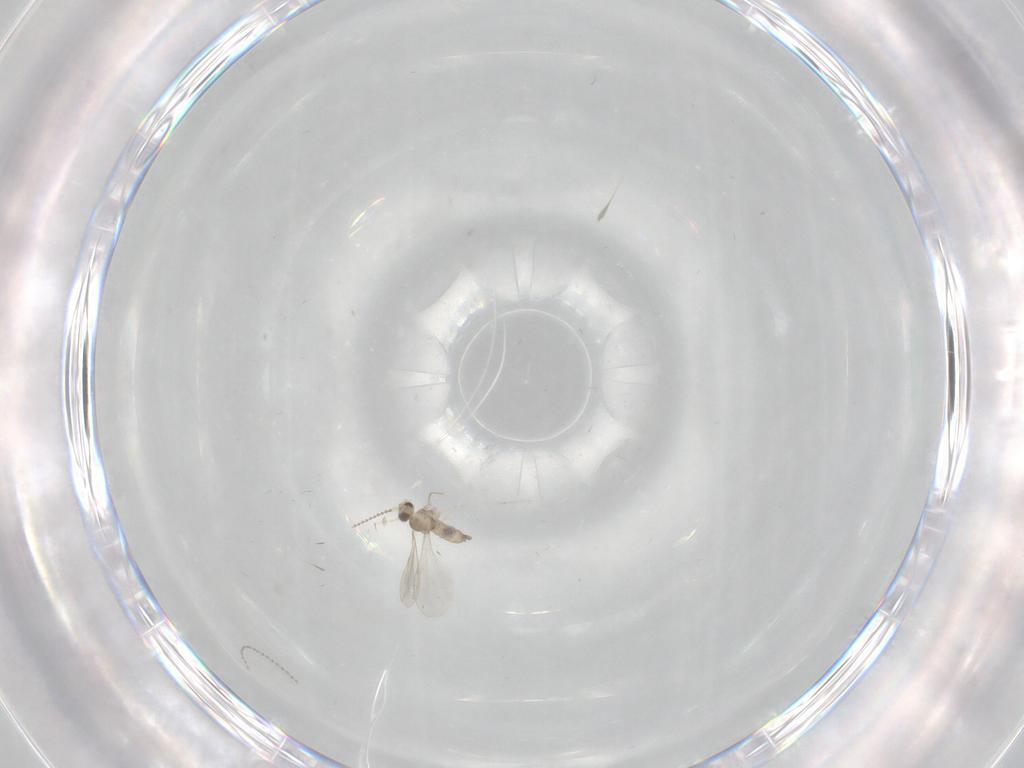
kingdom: Animalia
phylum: Arthropoda
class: Insecta
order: Diptera
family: Cecidomyiidae
